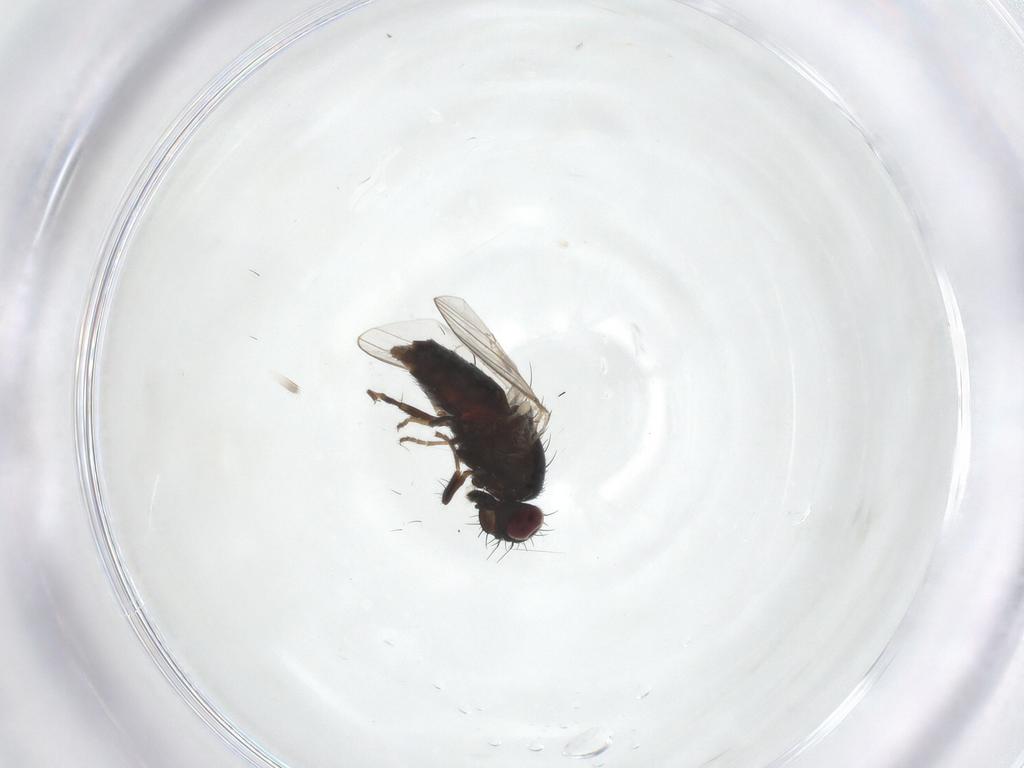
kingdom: Animalia
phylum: Arthropoda
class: Insecta
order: Diptera
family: Carnidae
